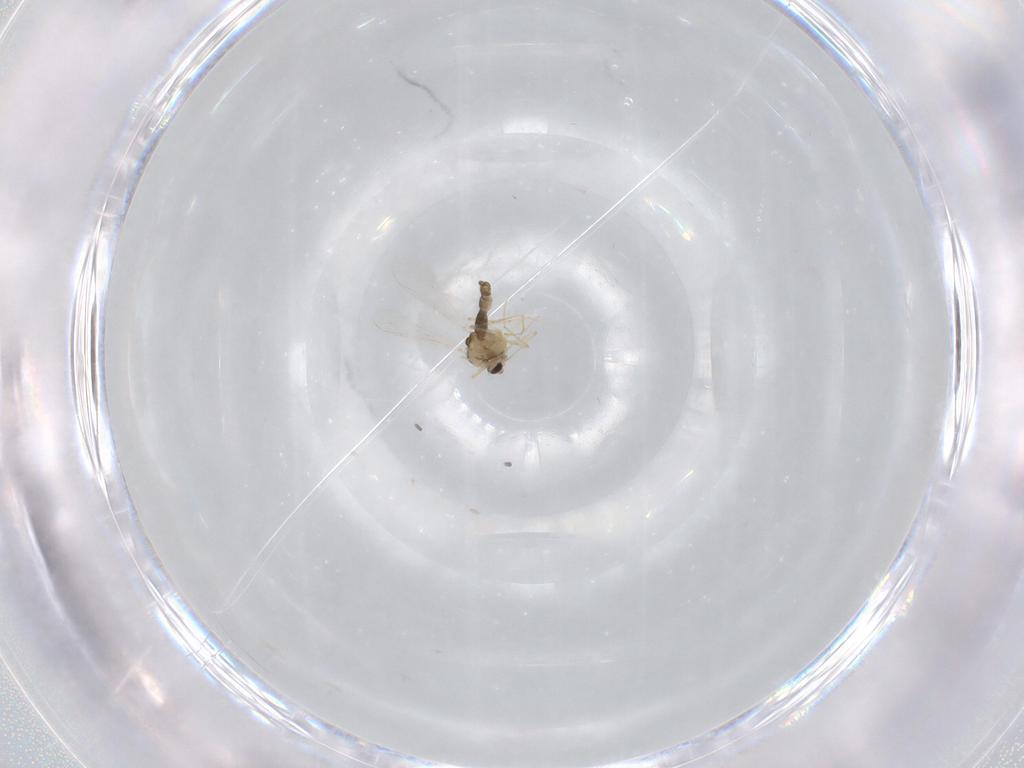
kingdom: Animalia
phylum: Arthropoda
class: Insecta
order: Diptera
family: Chironomidae
